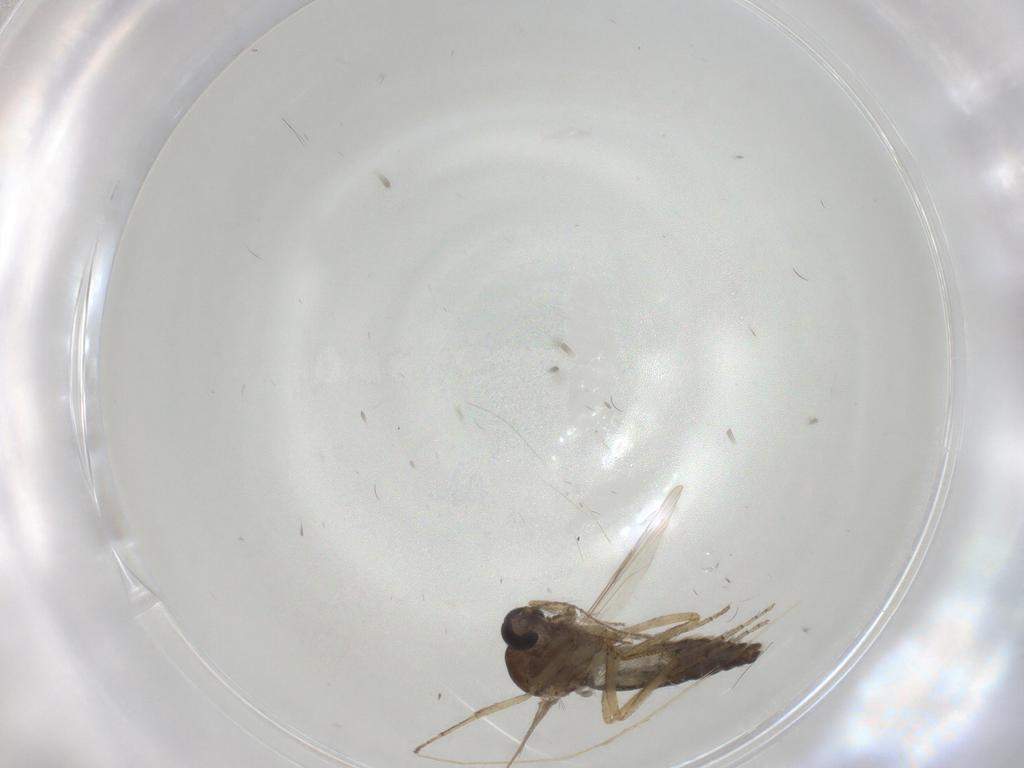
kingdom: Animalia
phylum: Arthropoda
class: Insecta
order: Diptera
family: Ceratopogonidae
